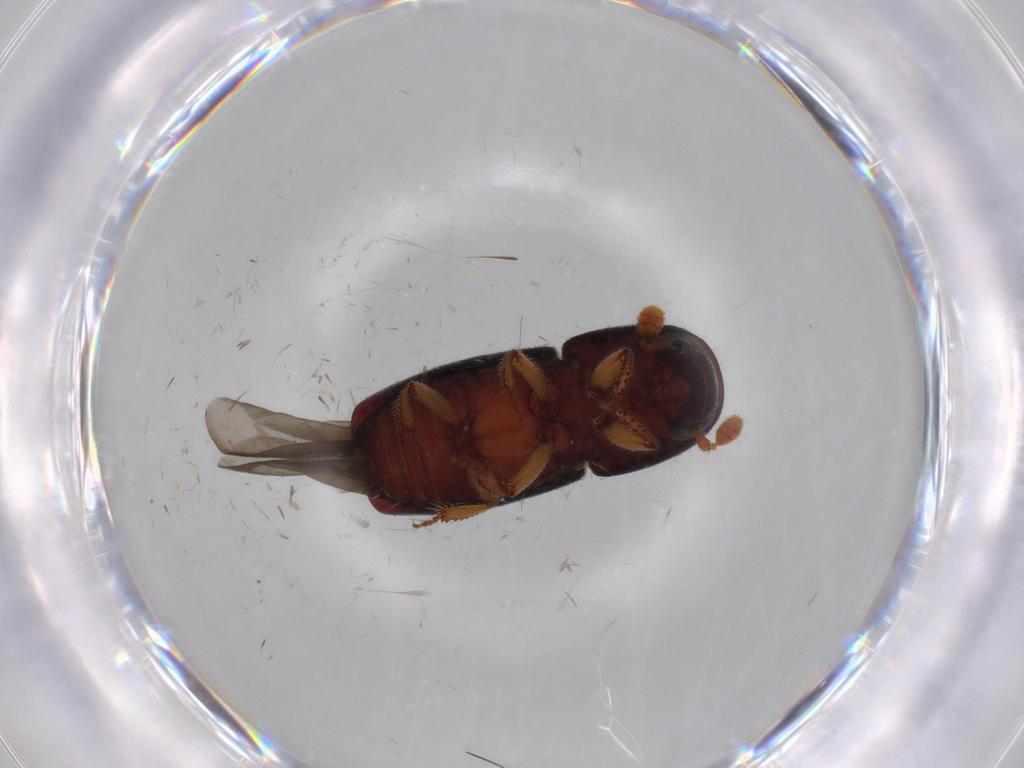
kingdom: Animalia
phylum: Arthropoda
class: Insecta
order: Coleoptera
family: Curculionidae
